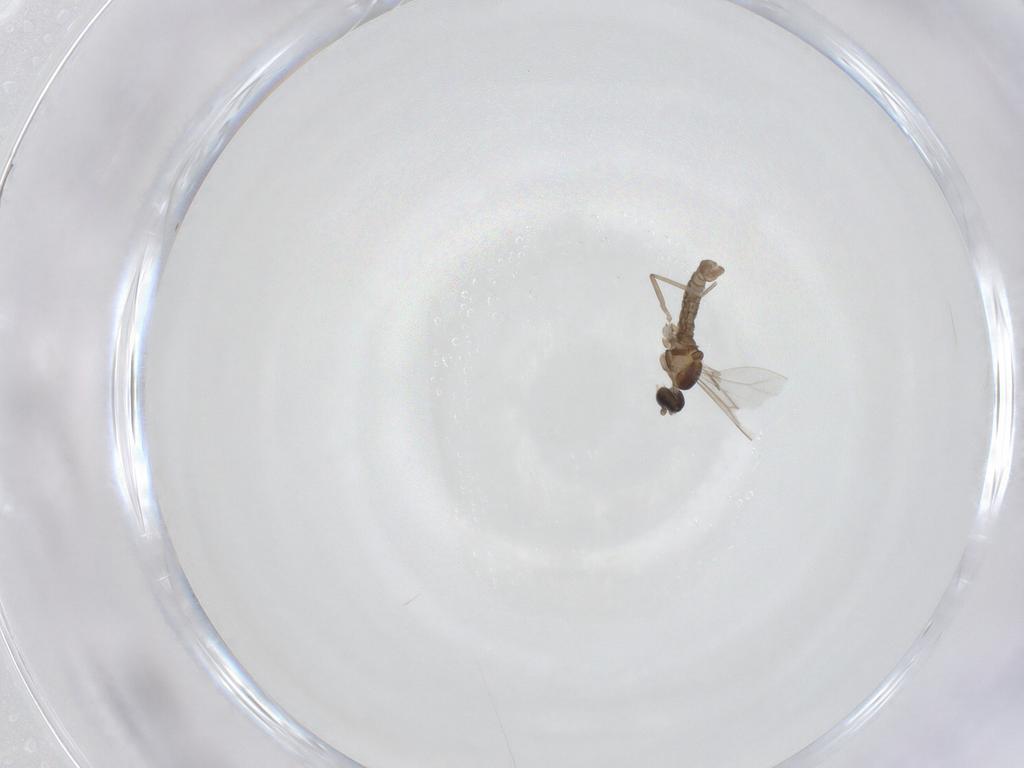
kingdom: Animalia
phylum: Arthropoda
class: Insecta
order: Diptera
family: Cecidomyiidae
